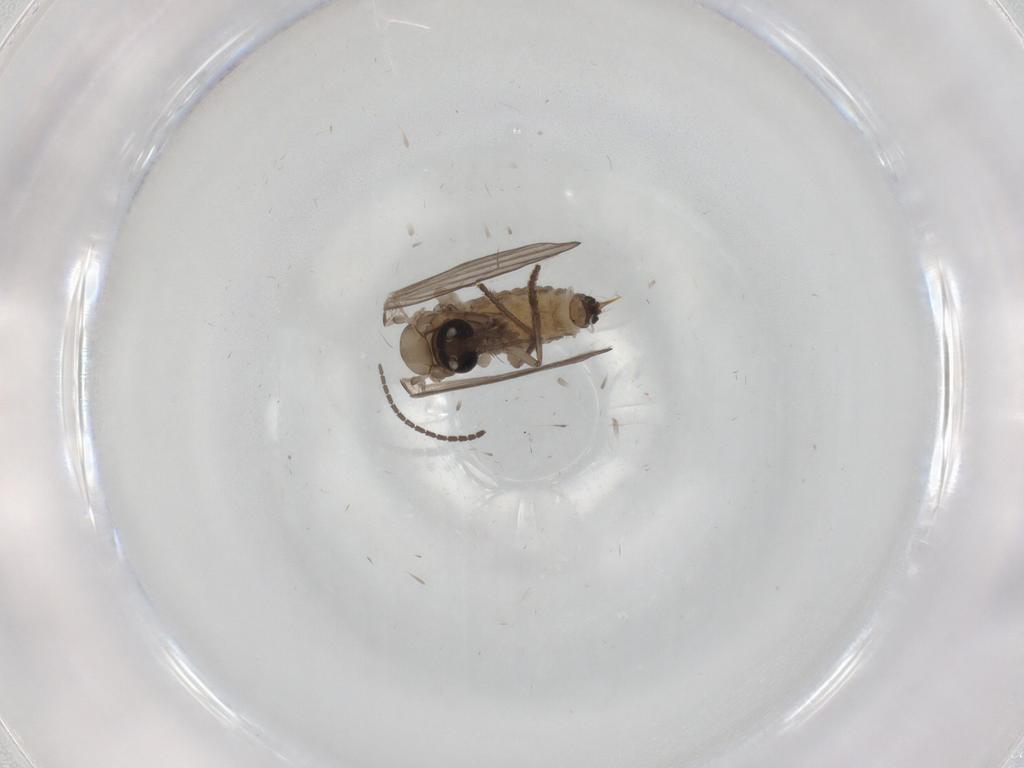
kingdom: Animalia
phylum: Arthropoda
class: Insecta
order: Diptera
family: Psychodidae
